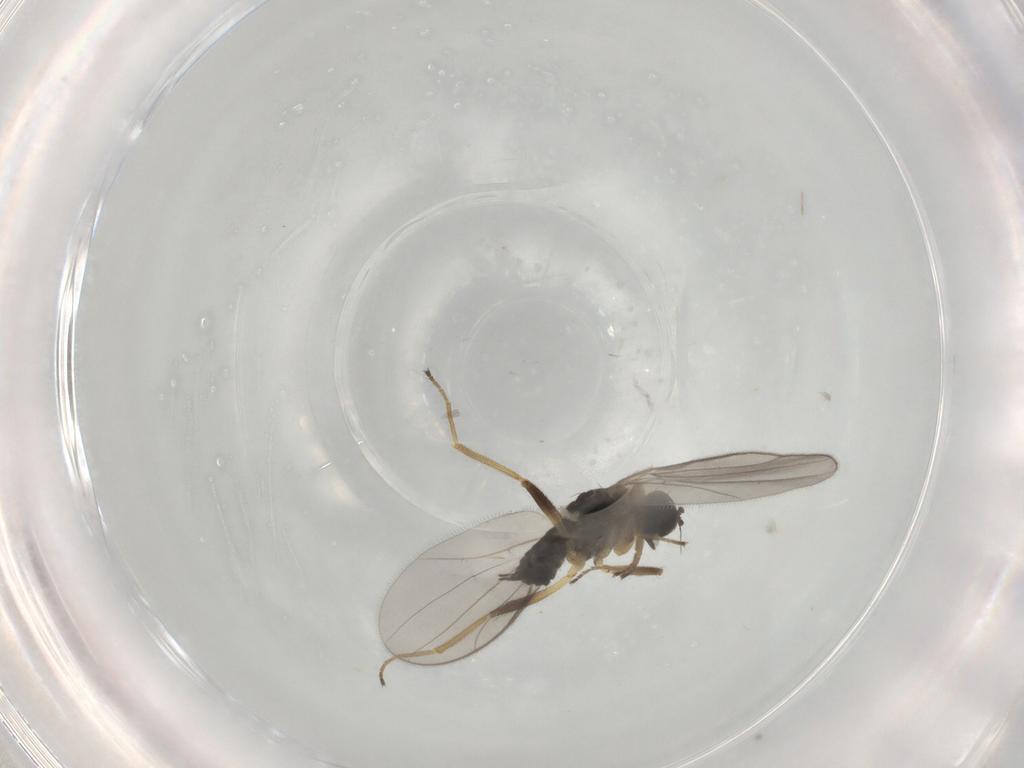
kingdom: Animalia
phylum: Arthropoda
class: Insecta
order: Diptera
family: Hybotidae
